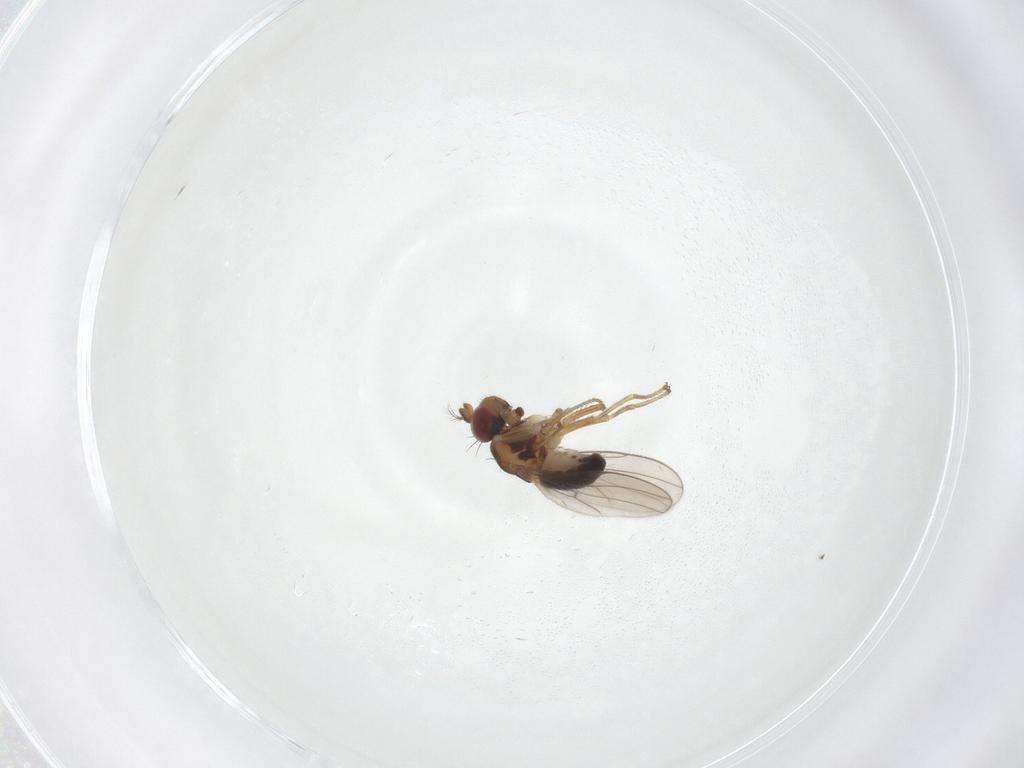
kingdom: Animalia
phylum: Arthropoda
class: Insecta
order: Diptera
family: Ephydridae
